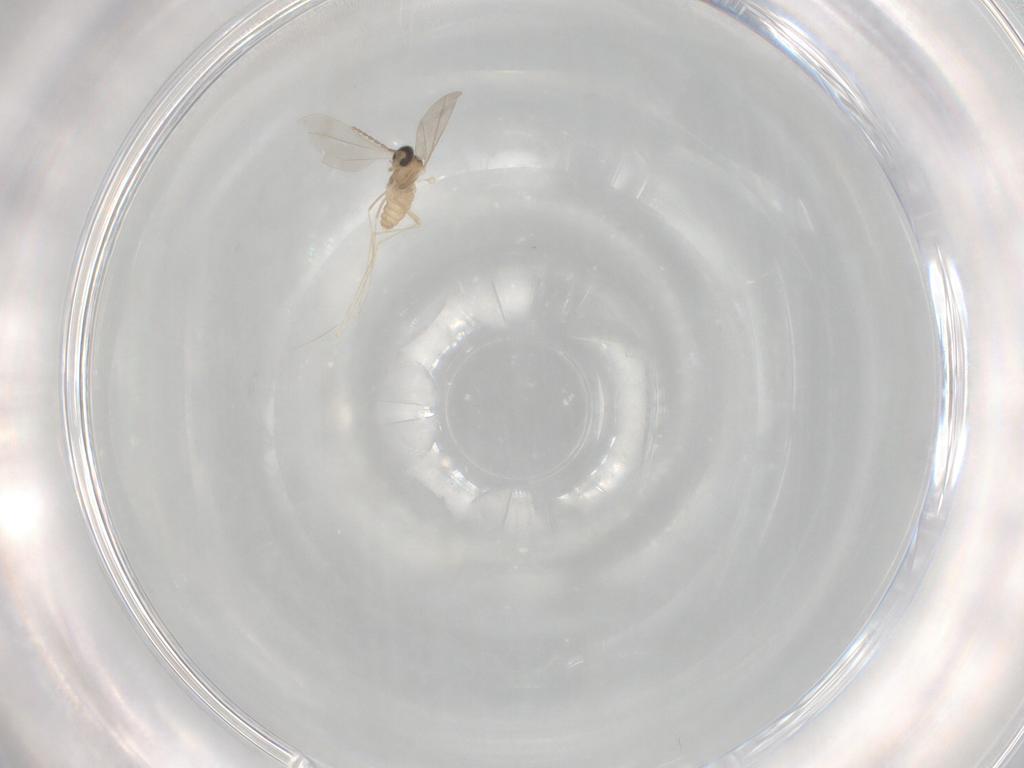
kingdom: Animalia
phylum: Arthropoda
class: Insecta
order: Diptera
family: Cecidomyiidae
